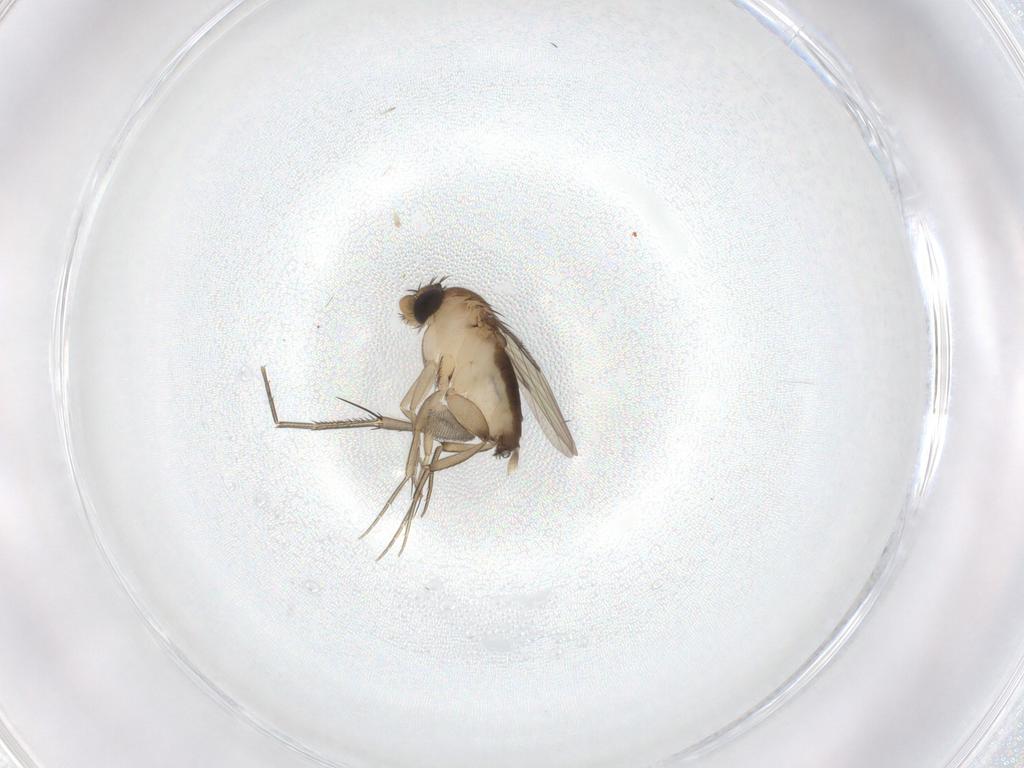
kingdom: Animalia
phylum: Arthropoda
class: Insecta
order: Diptera
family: Phoridae
